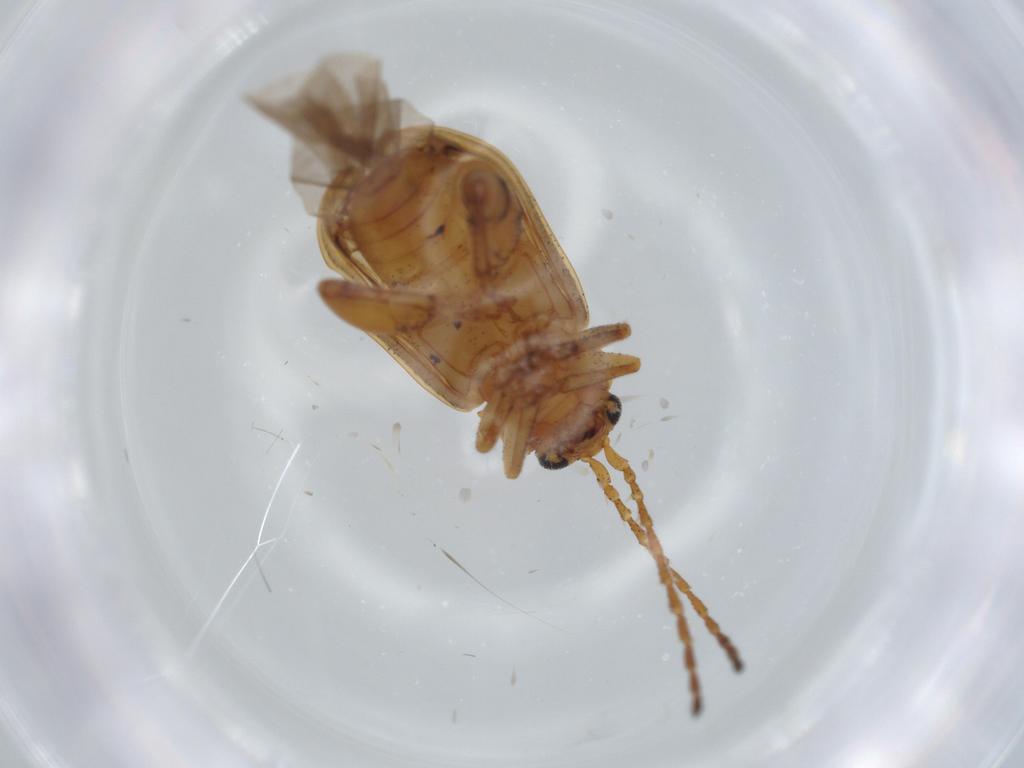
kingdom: Animalia
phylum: Arthropoda
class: Insecta
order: Coleoptera
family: Chrysomelidae
